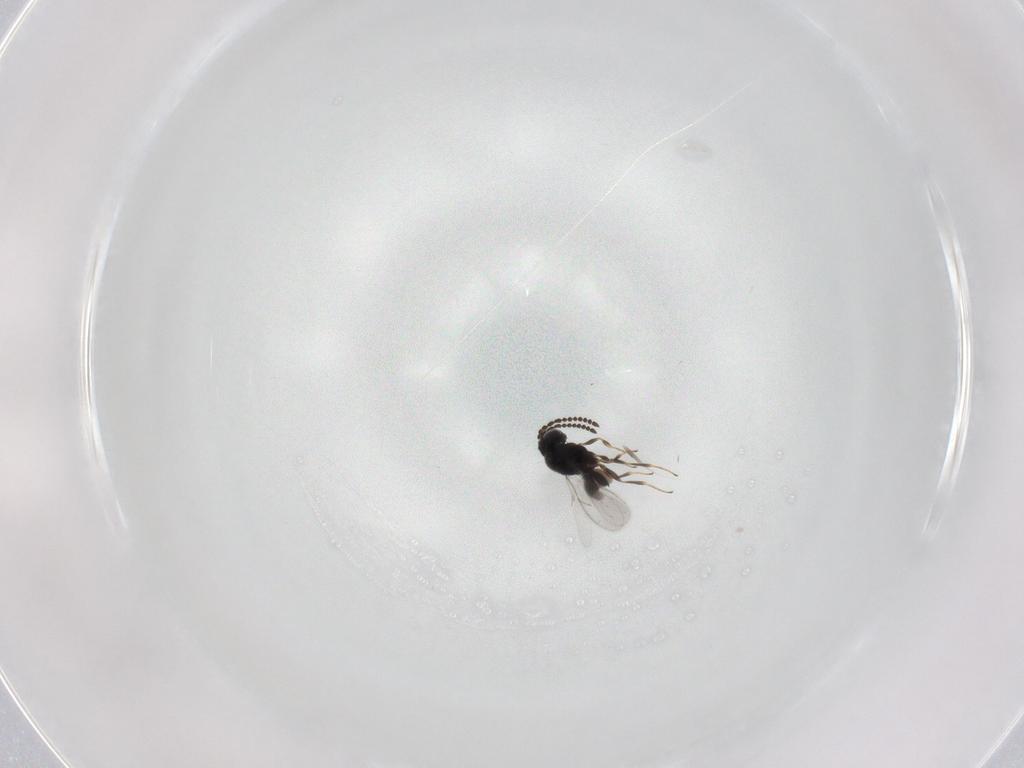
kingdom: Animalia
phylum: Arthropoda
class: Insecta
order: Hymenoptera
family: Scelionidae
